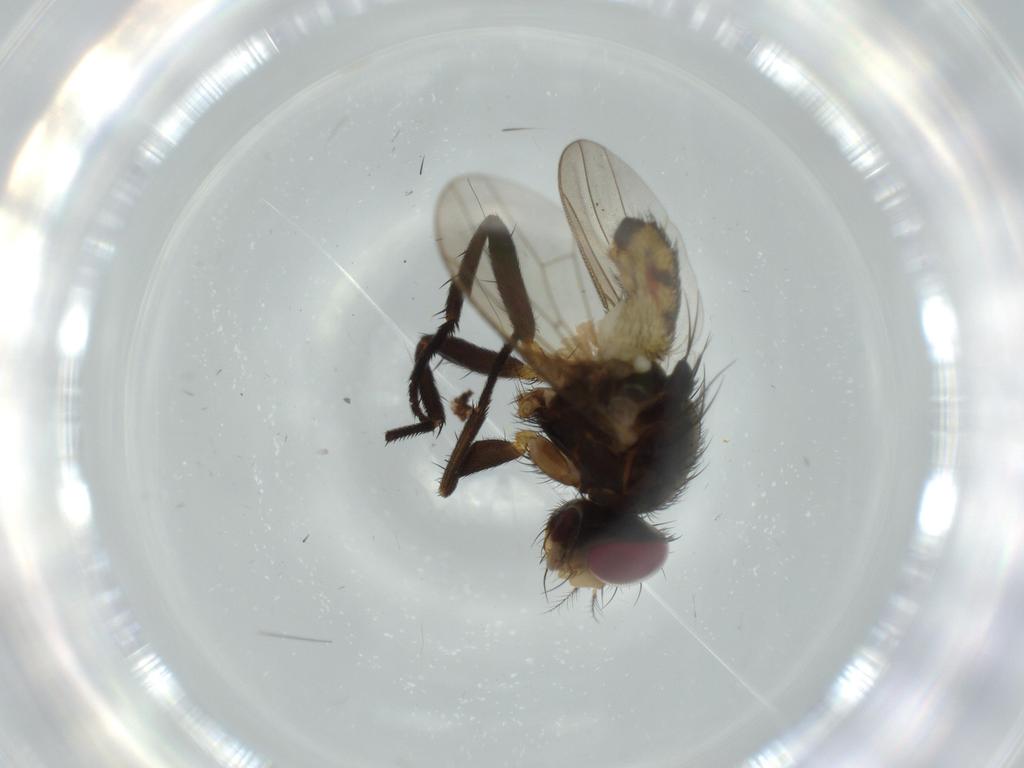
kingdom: Animalia
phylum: Arthropoda
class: Insecta
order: Diptera
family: Anthomyiidae
